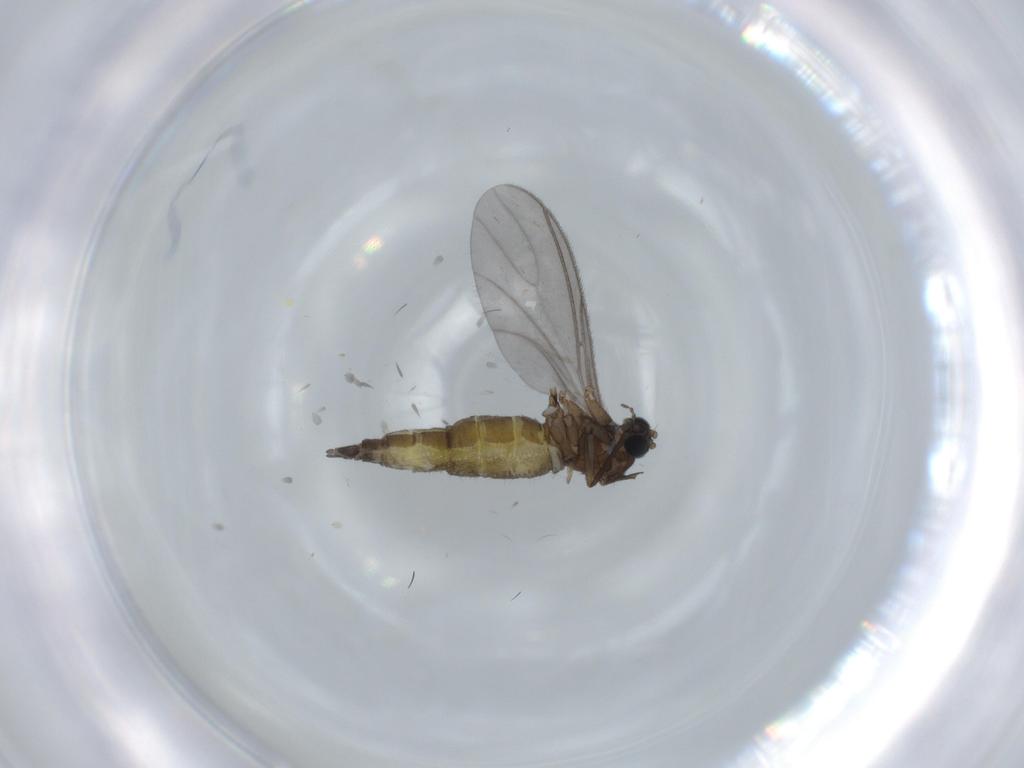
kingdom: Animalia
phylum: Arthropoda
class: Insecta
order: Diptera
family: Sciaridae
